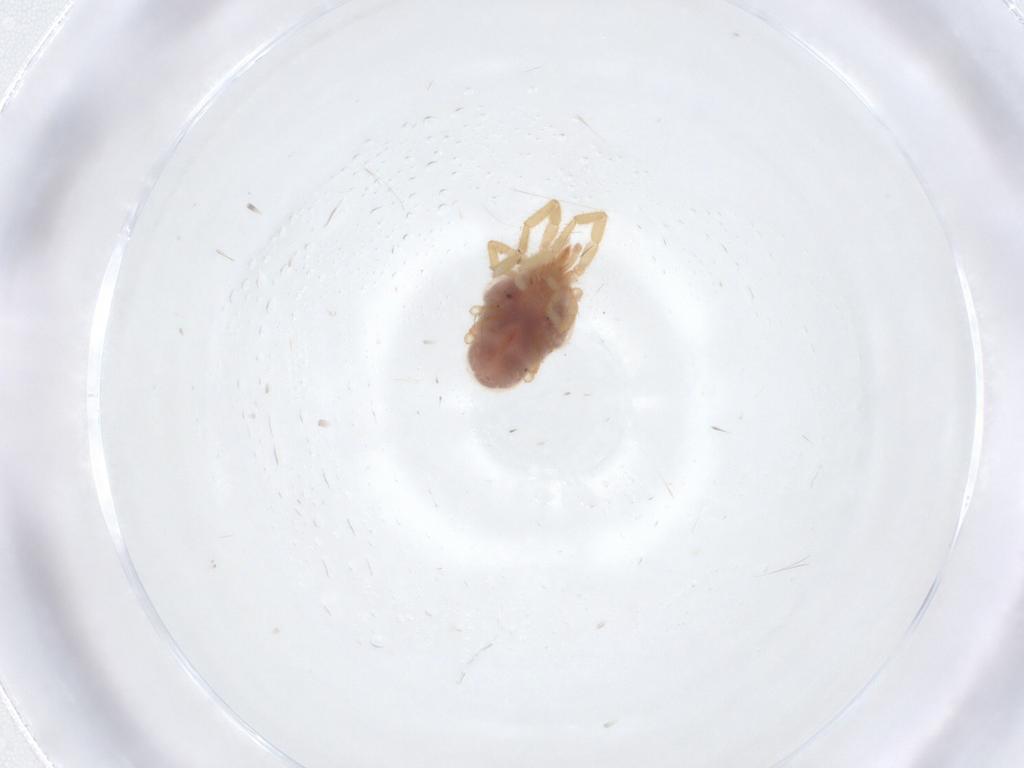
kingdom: Animalia
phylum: Arthropoda
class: Arachnida
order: Trombidiformes
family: Erythraeidae
